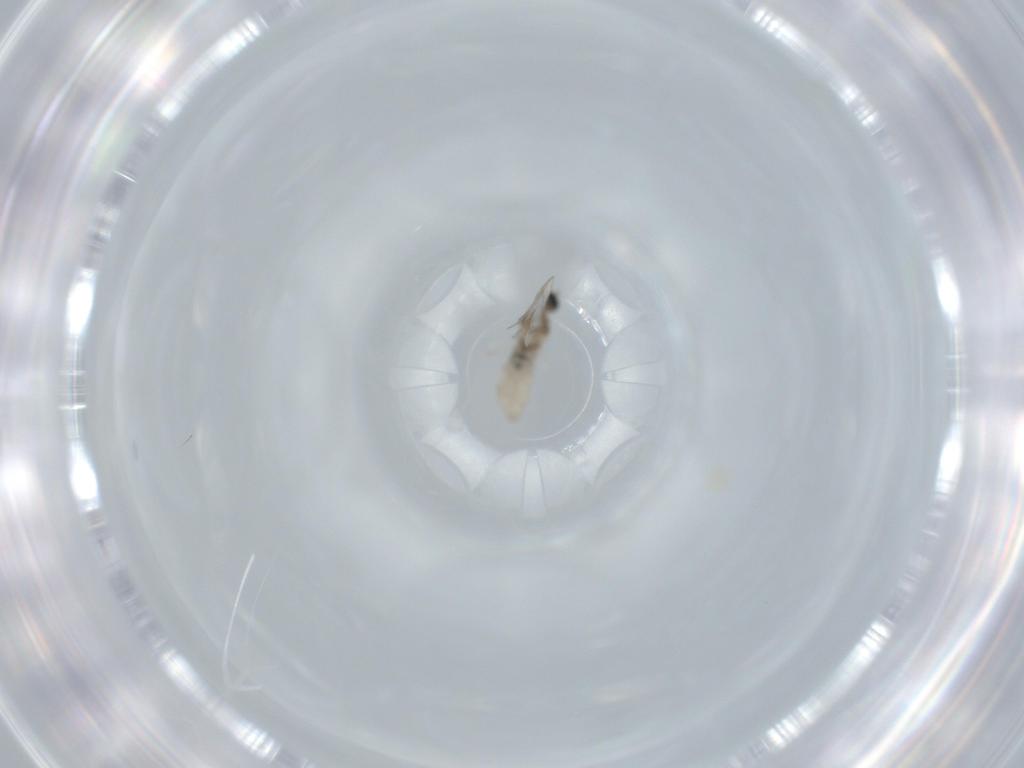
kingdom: Animalia
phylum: Arthropoda
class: Insecta
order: Diptera
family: Cecidomyiidae
